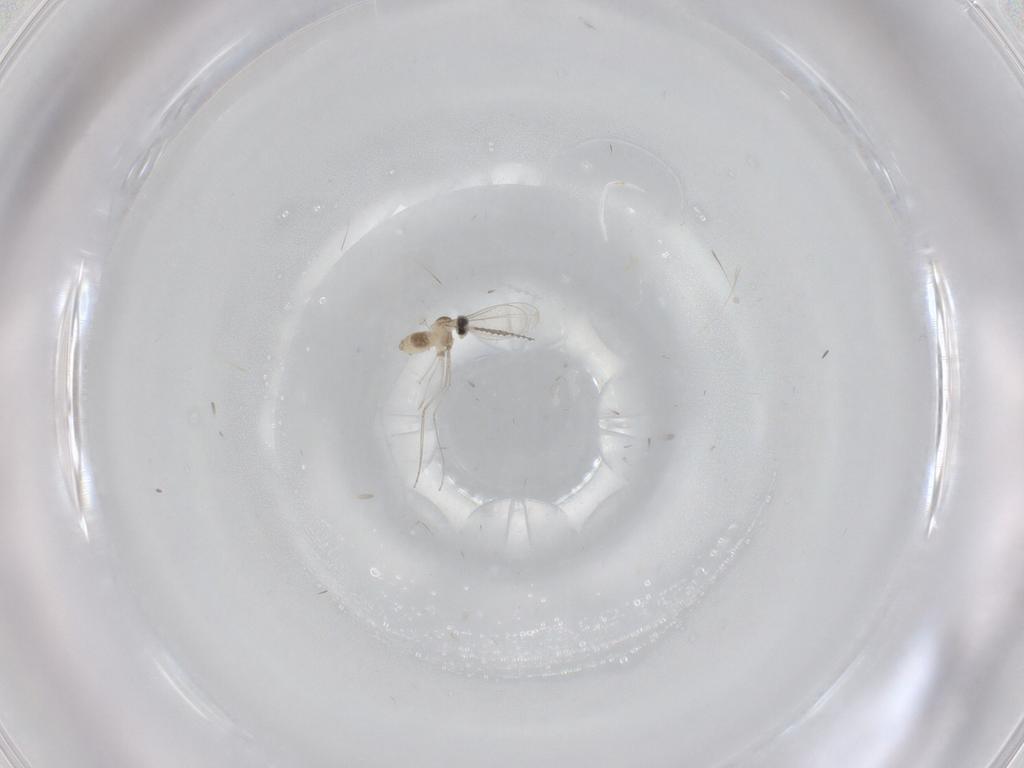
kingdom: Animalia
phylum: Arthropoda
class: Insecta
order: Diptera
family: Cecidomyiidae
